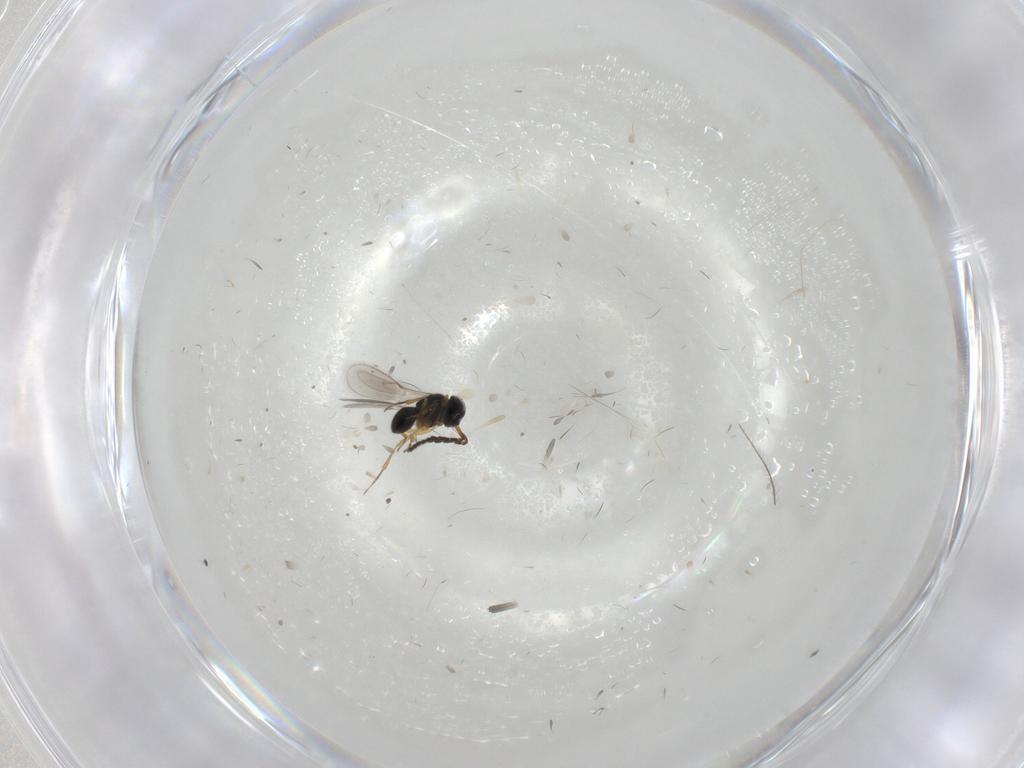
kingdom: Animalia
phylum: Arthropoda
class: Insecta
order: Hymenoptera
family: Scelionidae
